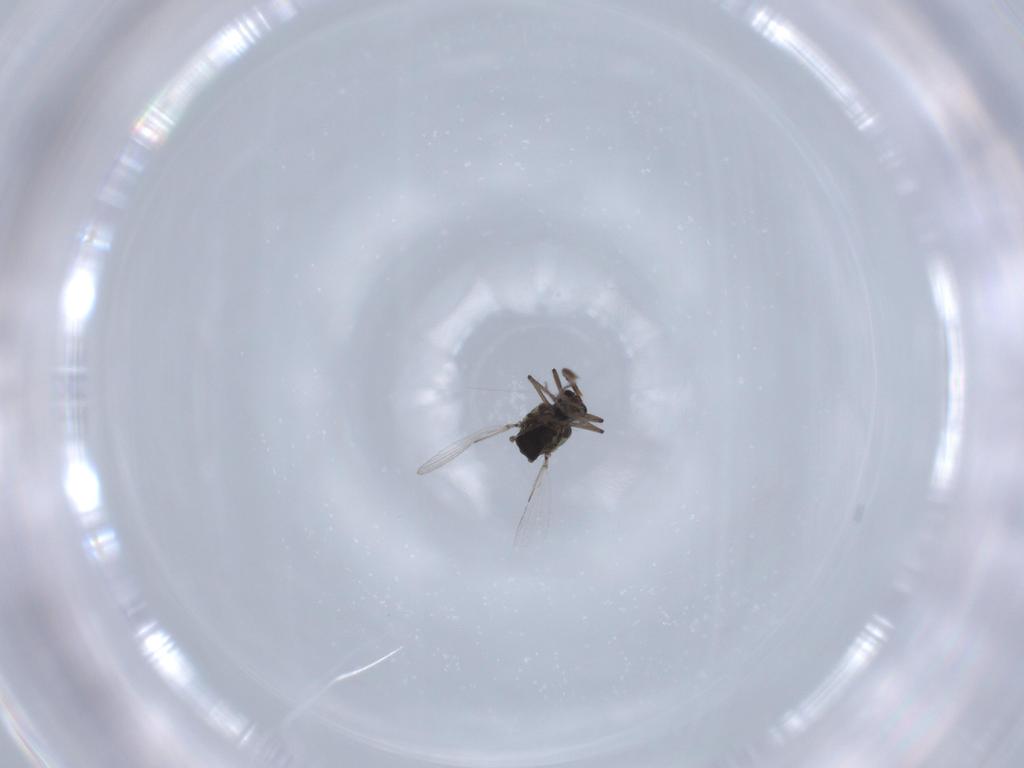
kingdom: Animalia
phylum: Arthropoda
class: Insecta
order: Diptera
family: Ceratopogonidae
